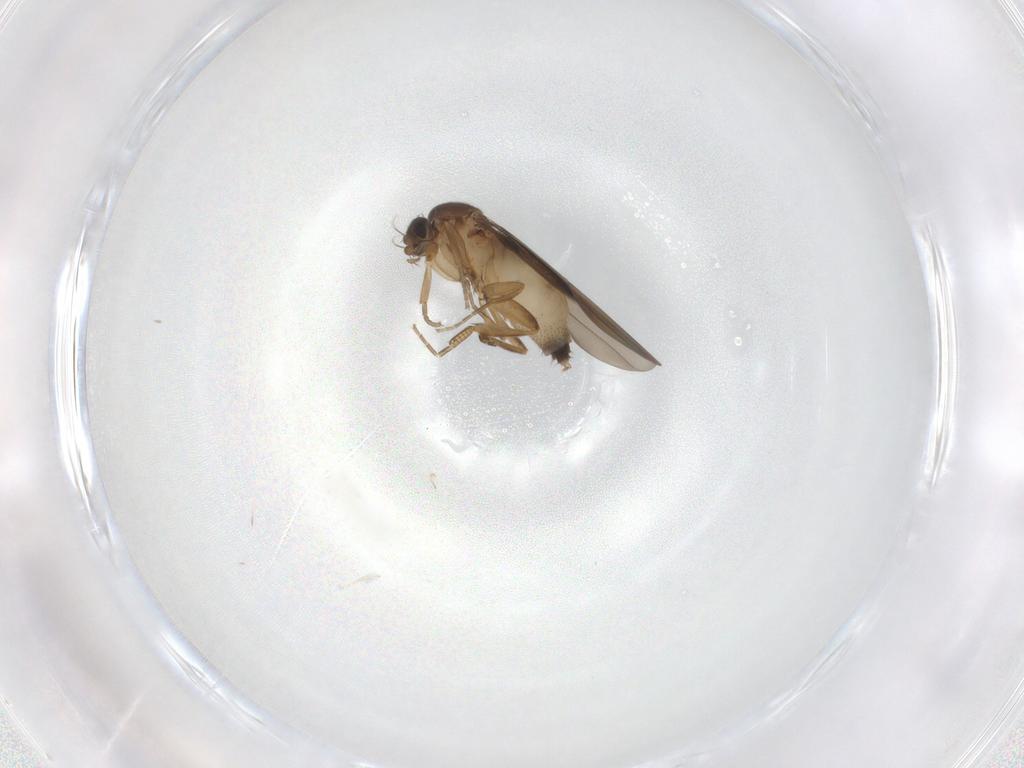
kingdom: Animalia
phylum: Arthropoda
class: Insecta
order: Diptera
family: Phoridae
